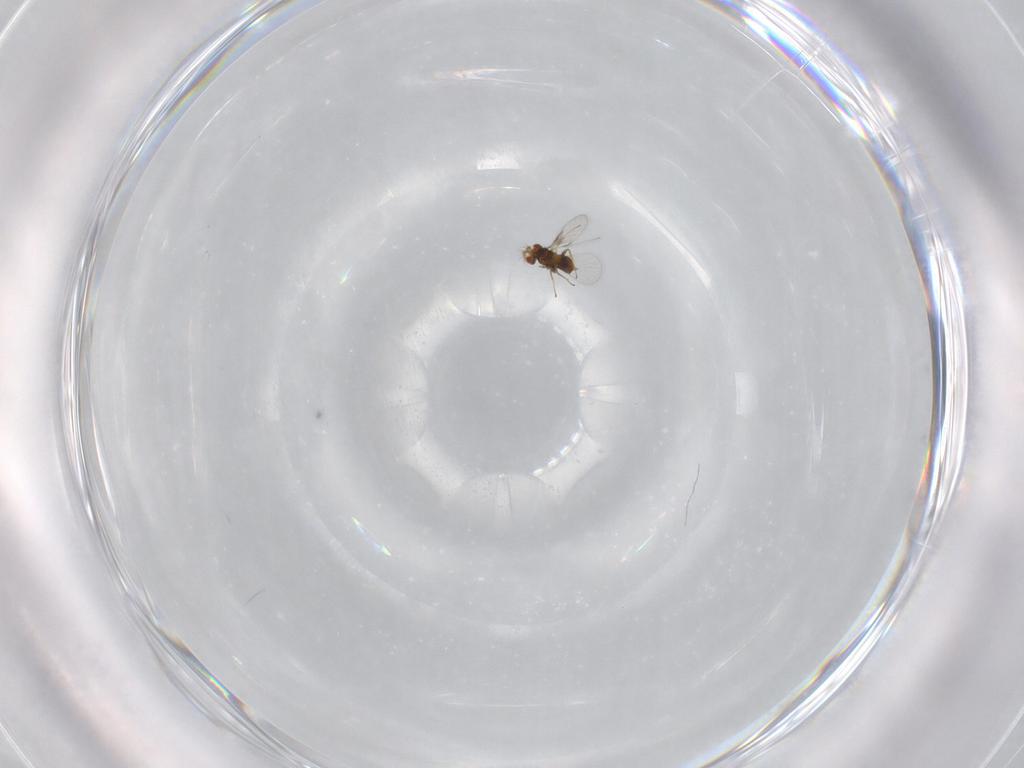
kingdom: Animalia
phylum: Arthropoda
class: Insecta
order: Hymenoptera
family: Trichogrammatidae
